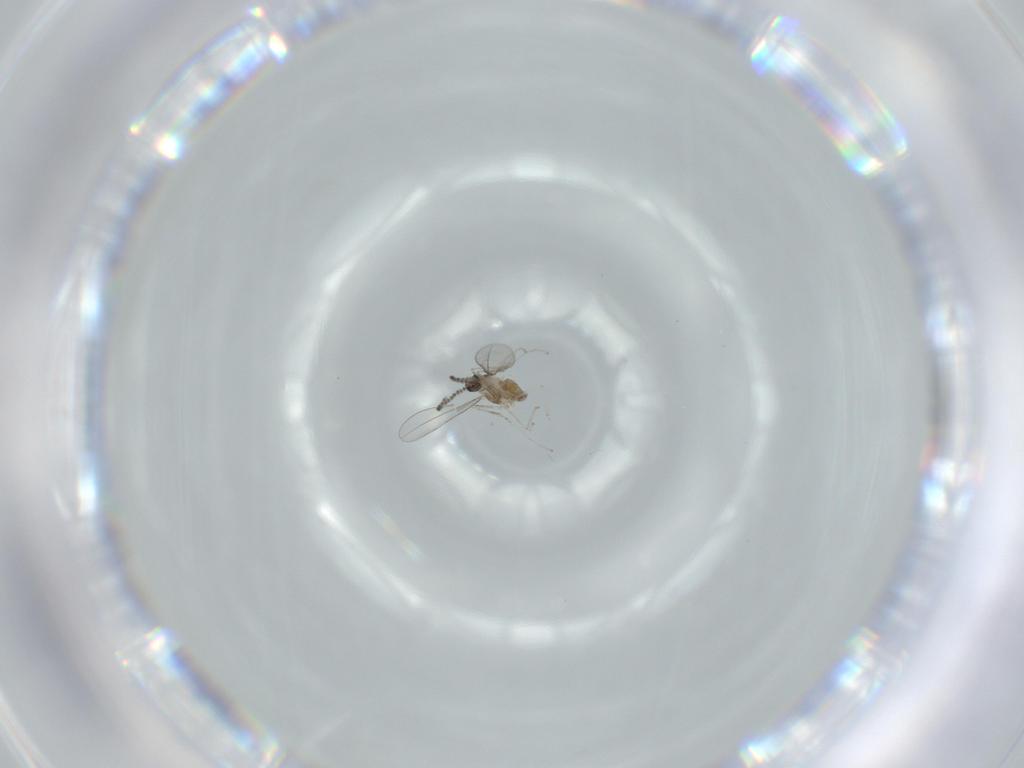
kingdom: Animalia
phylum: Arthropoda
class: Insecta
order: Diptera
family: Cecidomyiidae
